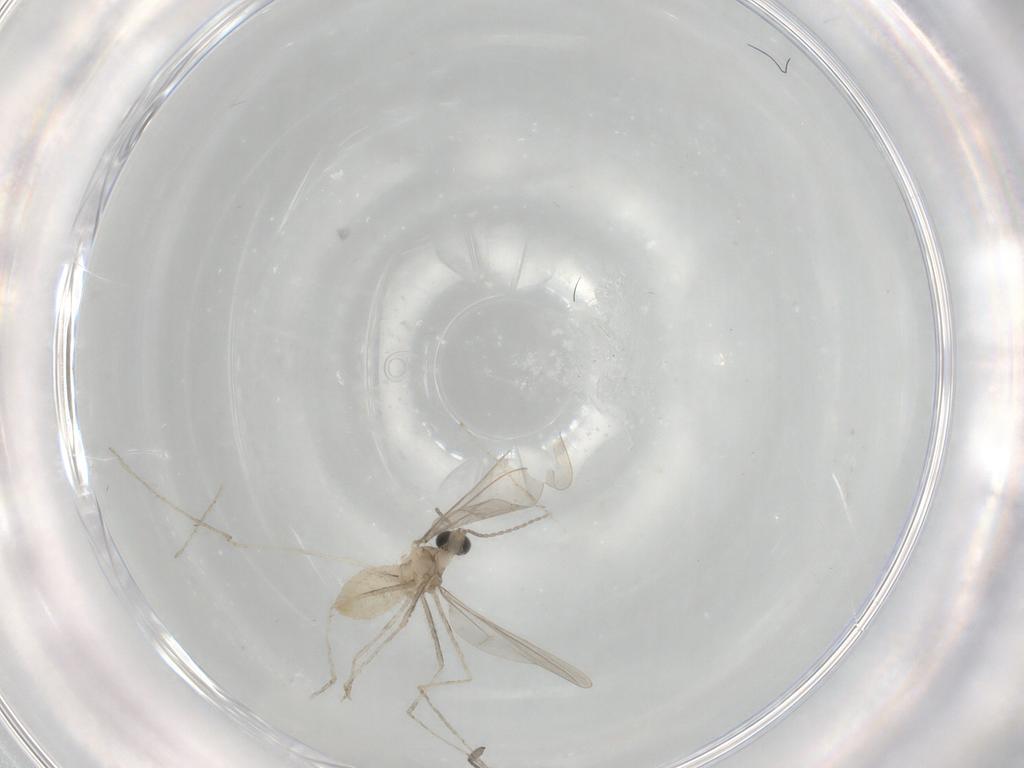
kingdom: Animalia
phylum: Arthropoda
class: Insecta
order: Diptera
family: Sciaridae
